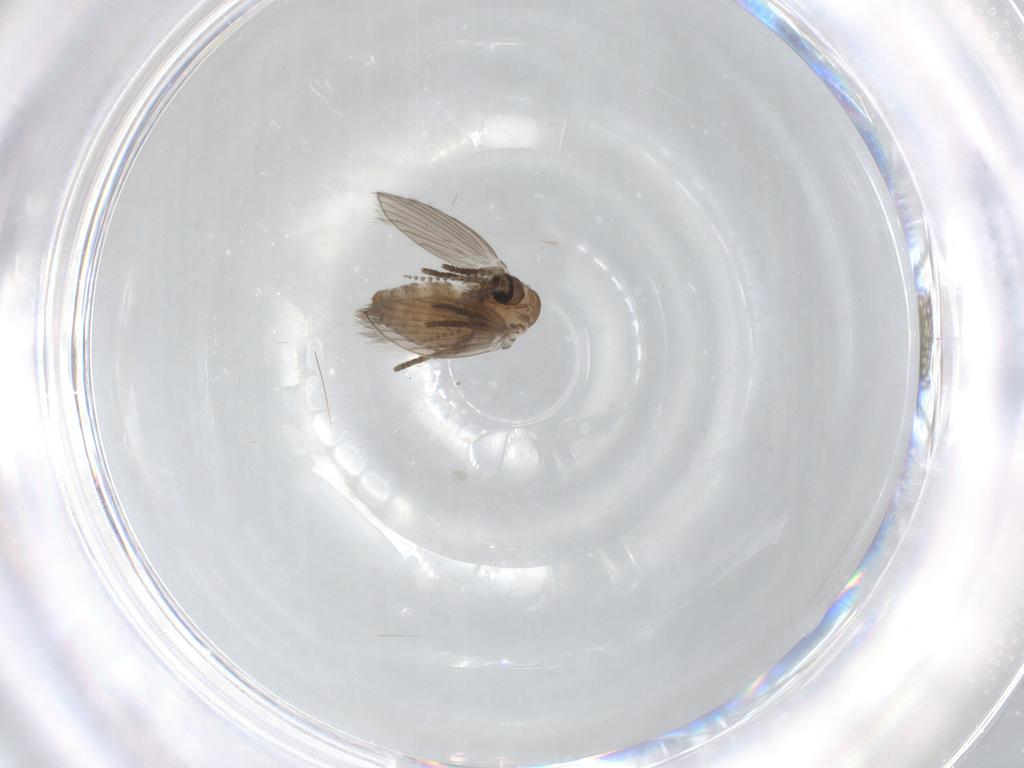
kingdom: Animalia
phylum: Arthropoda
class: Insecta
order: Diptera
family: Psychodidae
